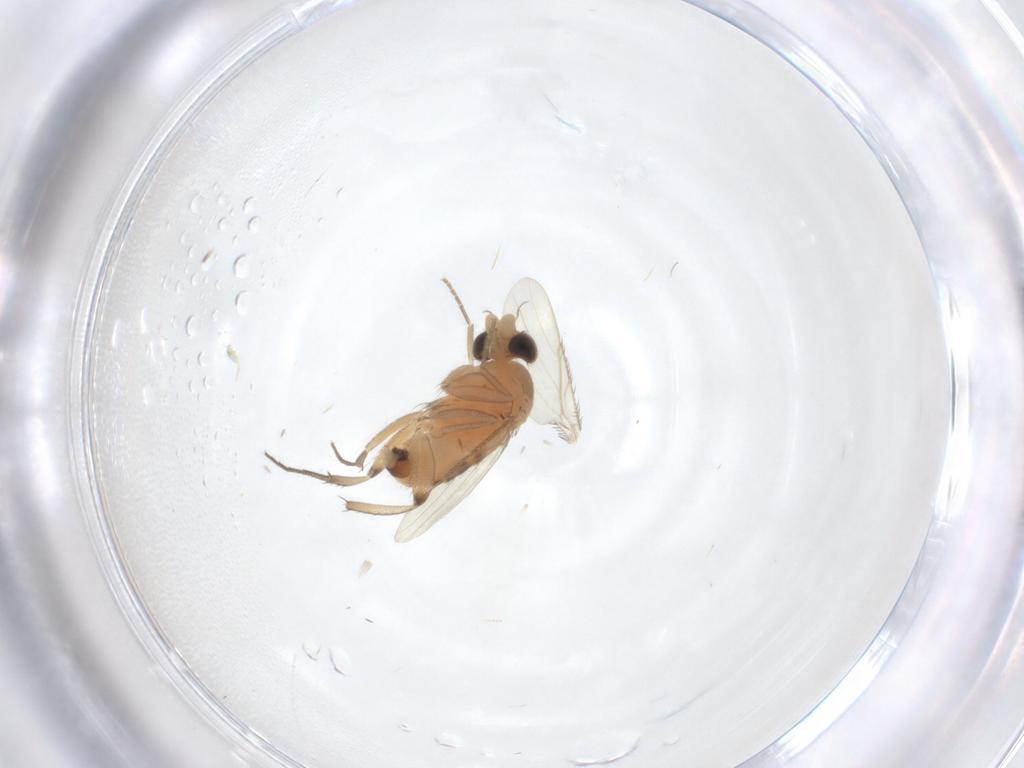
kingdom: Animalia
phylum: Arthropoda
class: Insecta
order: Diptera
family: Phoridae
